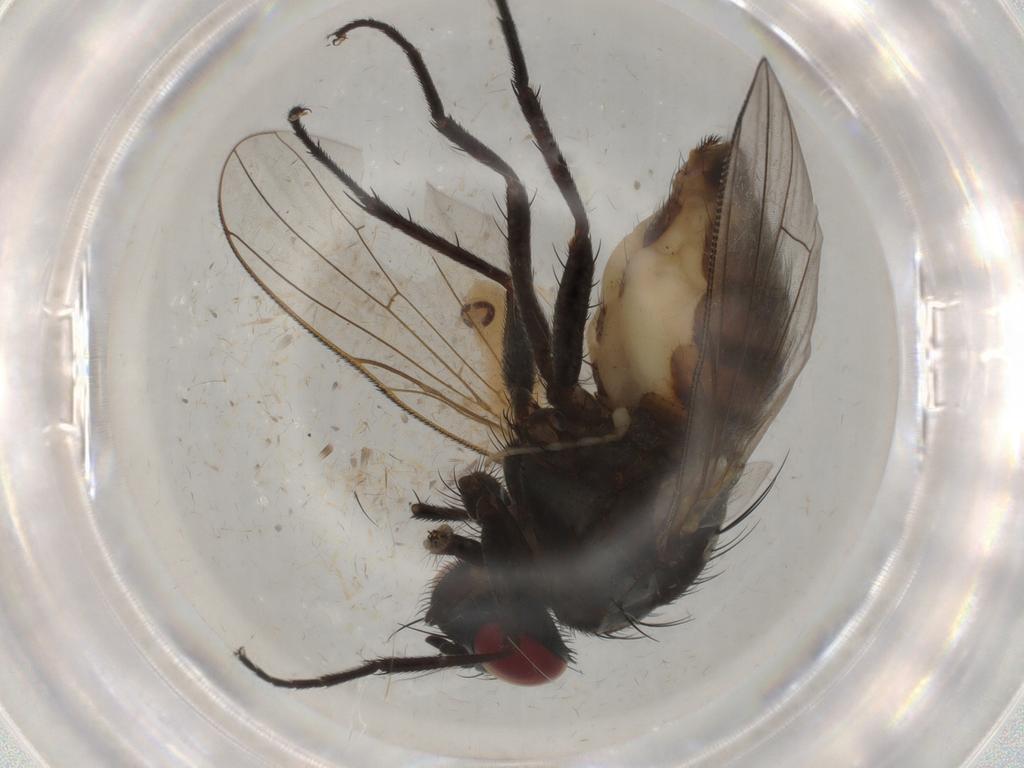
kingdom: Animalia
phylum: Arthropoda
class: Insecta
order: Diptera
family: Psychodidae
